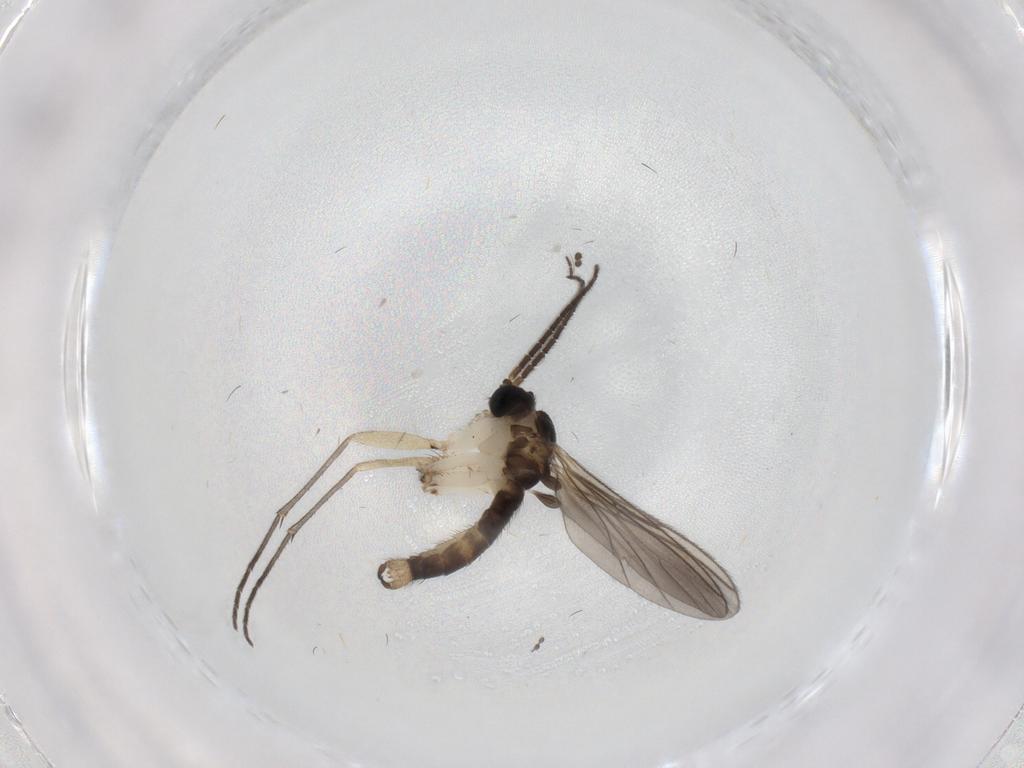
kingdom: Animalia
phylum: Arthropoda
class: Insecta
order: Diptera
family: Sciaridae
